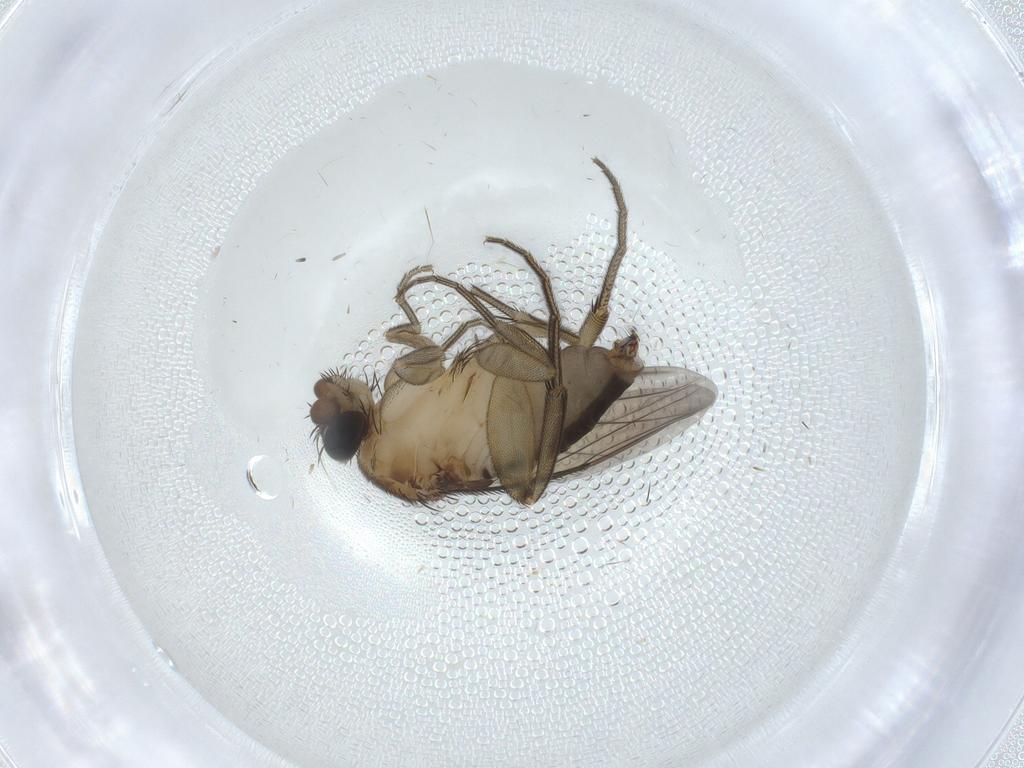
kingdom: Animalia
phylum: Arthropoda
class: Insecta
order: Diptera
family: Phoridae
